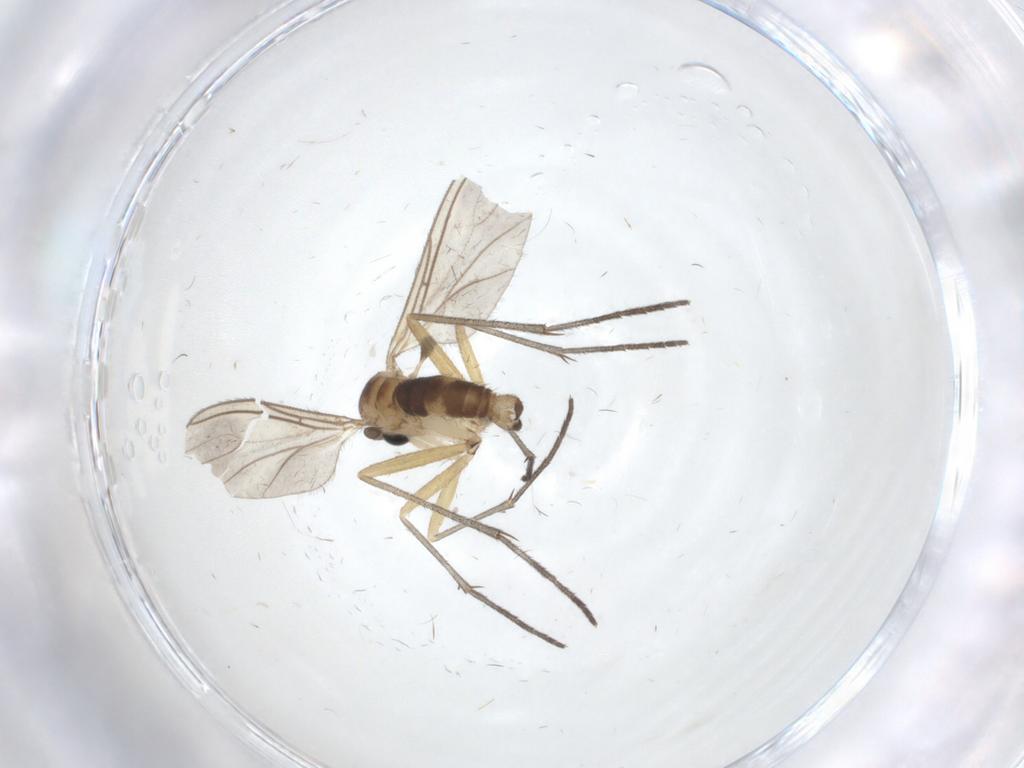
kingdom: Animalia
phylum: Arthropoda
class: Insecta
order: Diptera
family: Sciaridae
